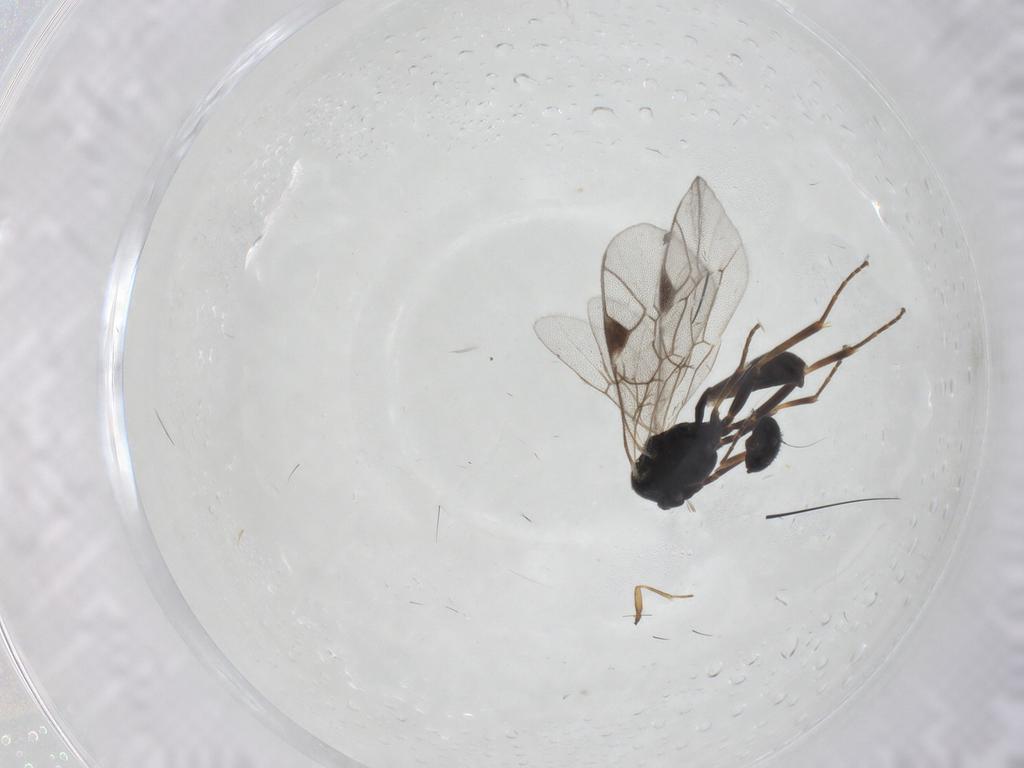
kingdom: Animalia
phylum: Arthropoda
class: Insecta
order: Hymenoptera
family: Ichneumonidae
